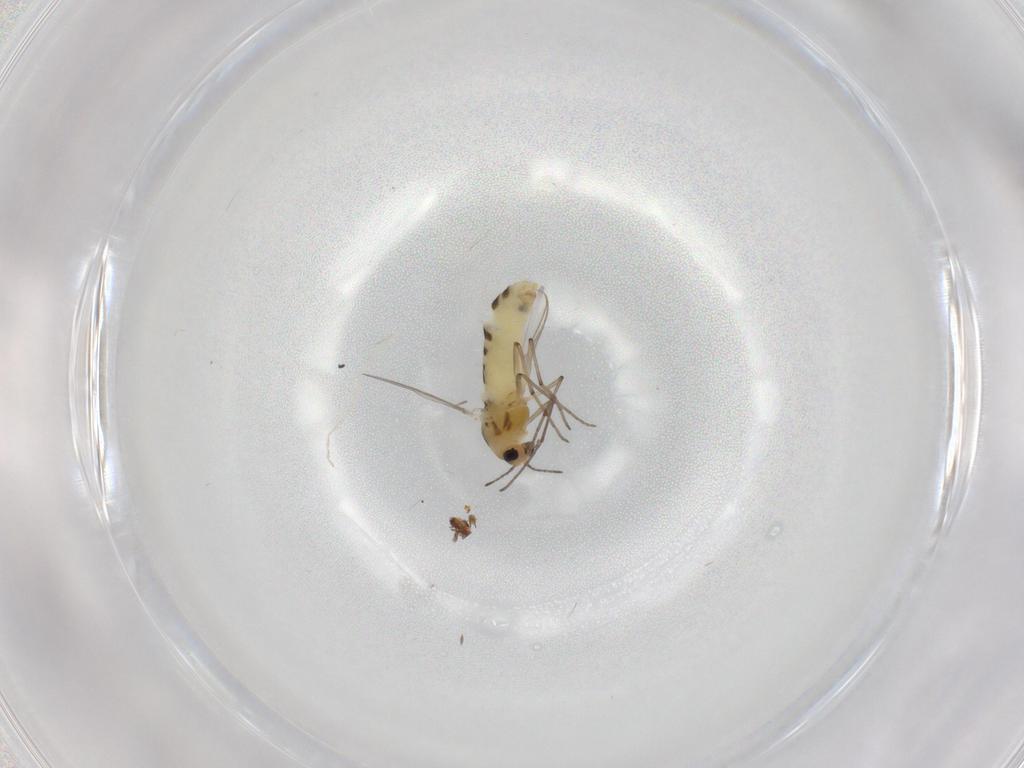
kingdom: Animalia
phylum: Arthropoda
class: Insecta
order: Diptera
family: Chironomidae
